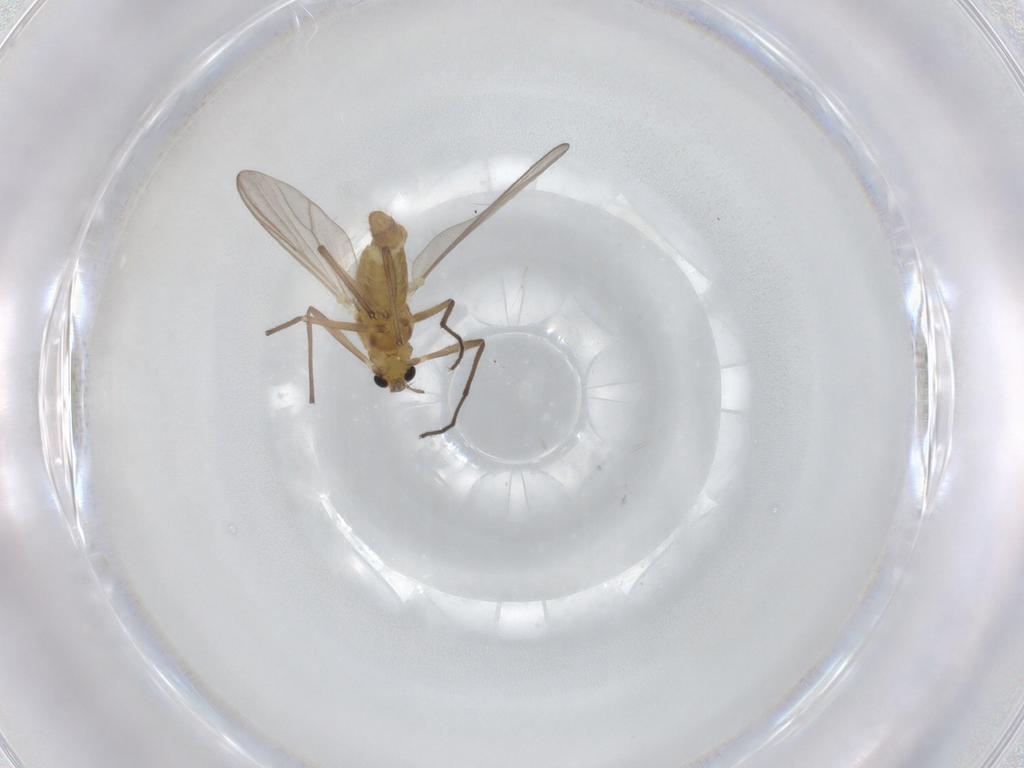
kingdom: Animalia
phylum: Arthropoda
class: Insecta
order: Diptera
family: Chironomidae
